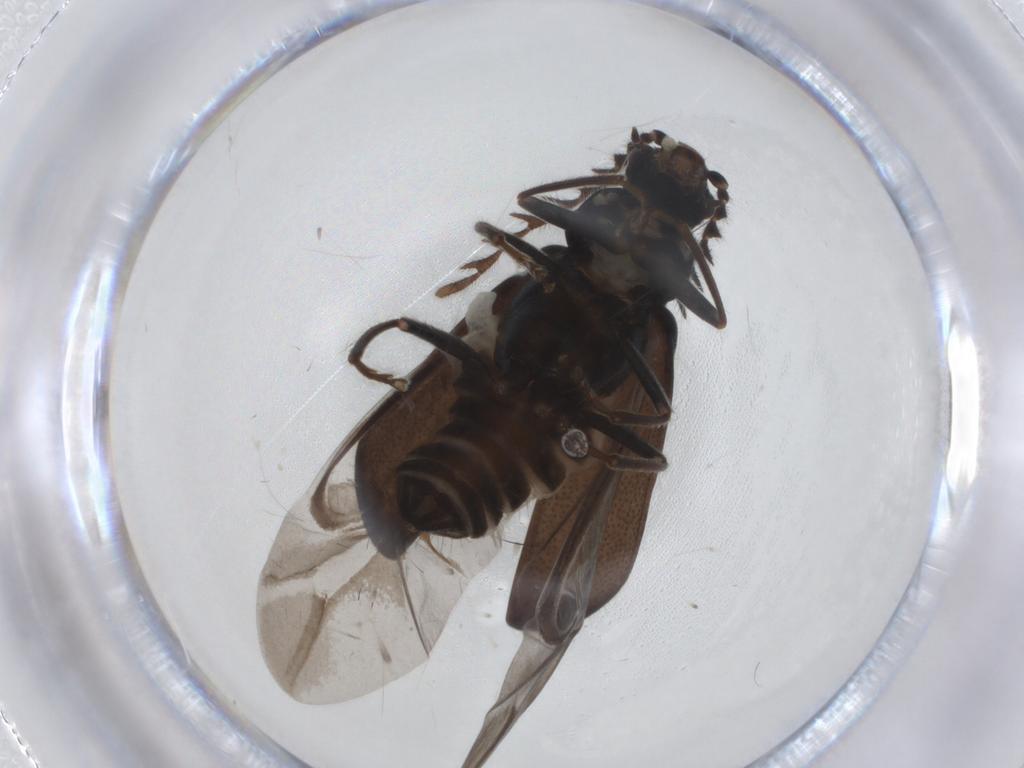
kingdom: Animalia
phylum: Arthropoda
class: Insecta
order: Coleoptera
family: Melyridae
